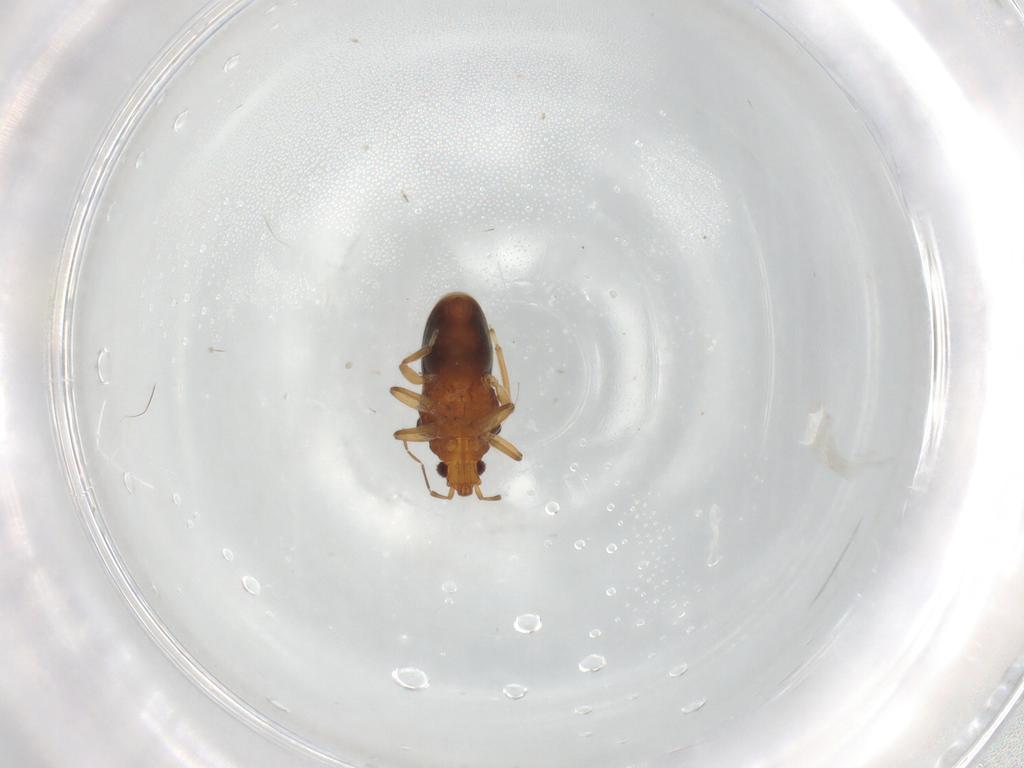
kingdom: Animalia
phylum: Arthropoda
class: Insecta
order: Hemiptera
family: Hebridae
